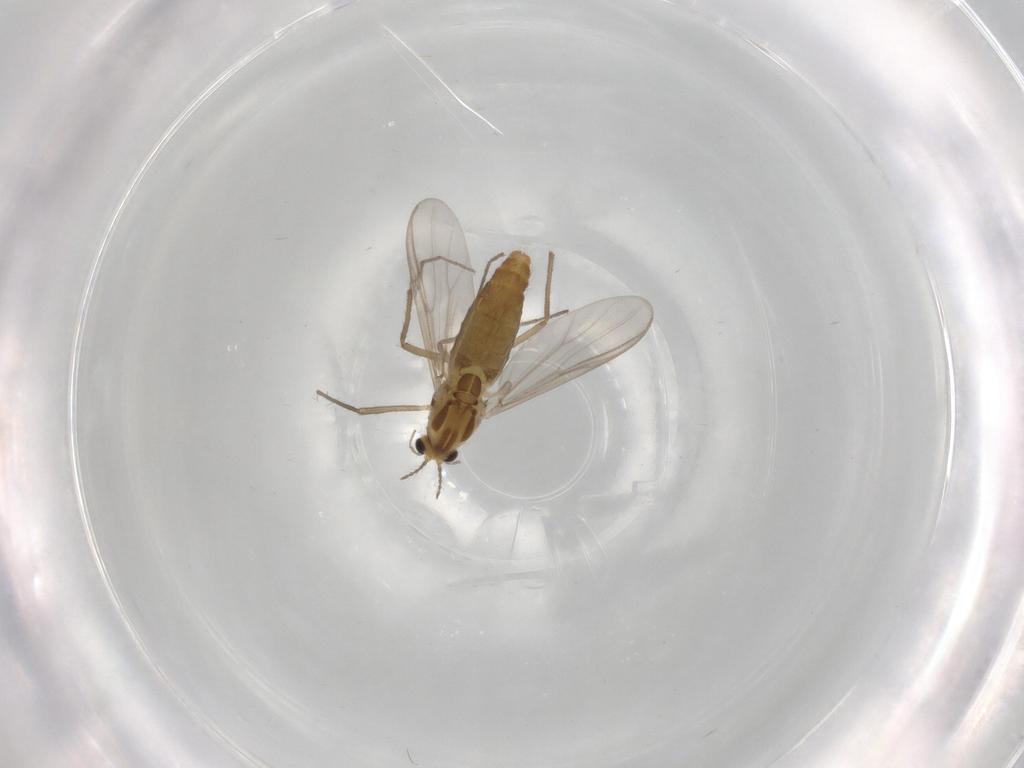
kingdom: Animalia
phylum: Arthropoda
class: Insecta
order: Diptera
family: Chironomidae
